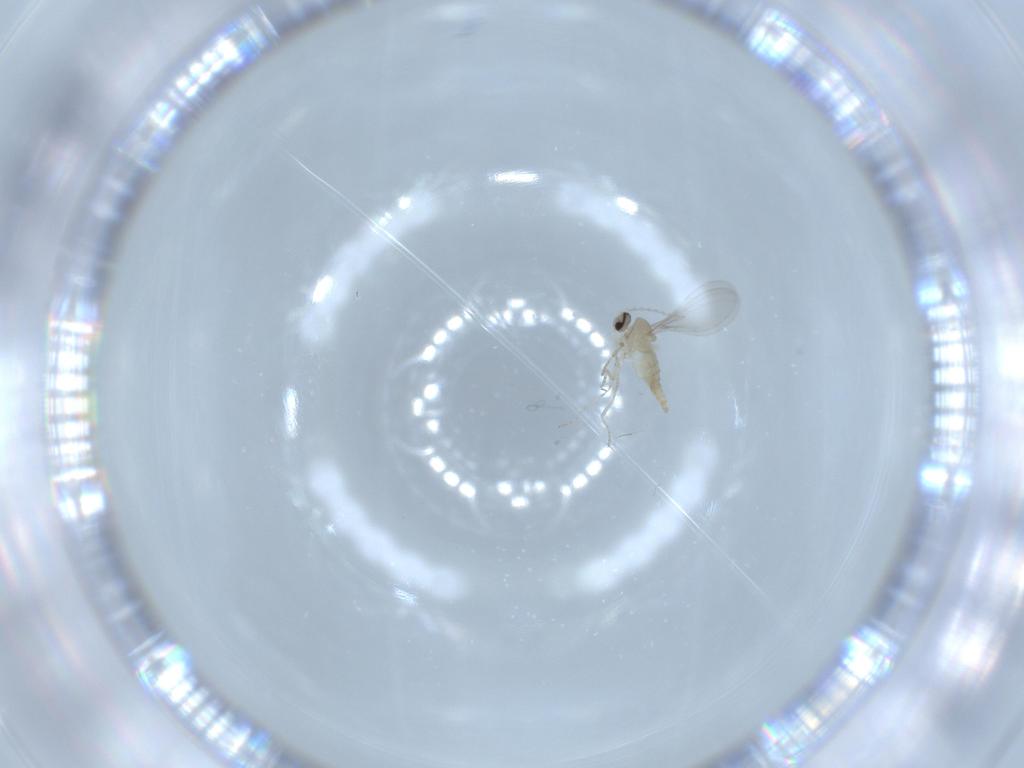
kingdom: Animalia
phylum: Arthropoda
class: Insecta
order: Diptera
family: Cecidomyiidae
